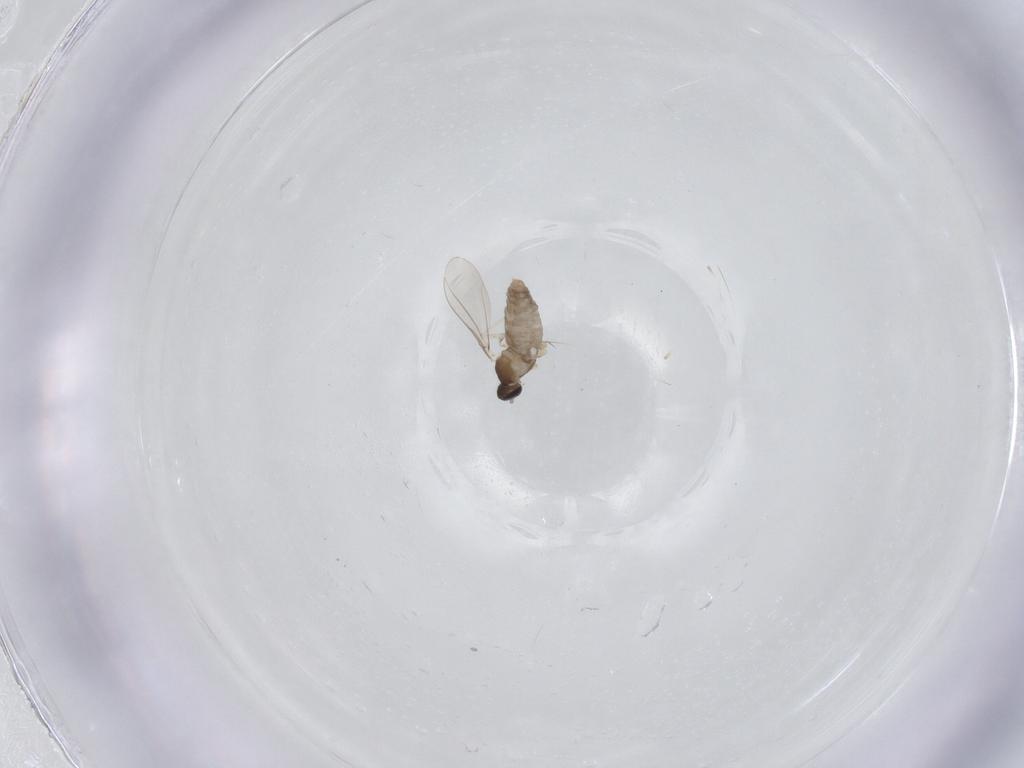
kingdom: Animalia
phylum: Arthropoda
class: Insecta
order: Diptera
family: Cecidomyiidae
